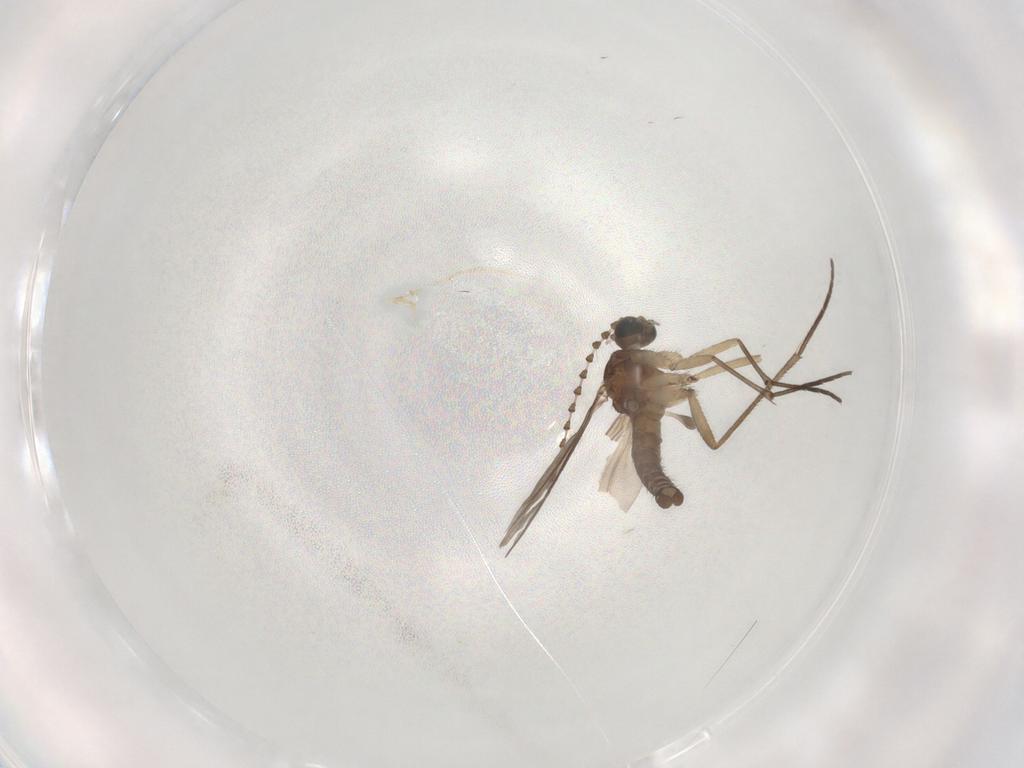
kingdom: Animalia
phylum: Arthropoda
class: Insecta
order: Diptera
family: Sciaridae
